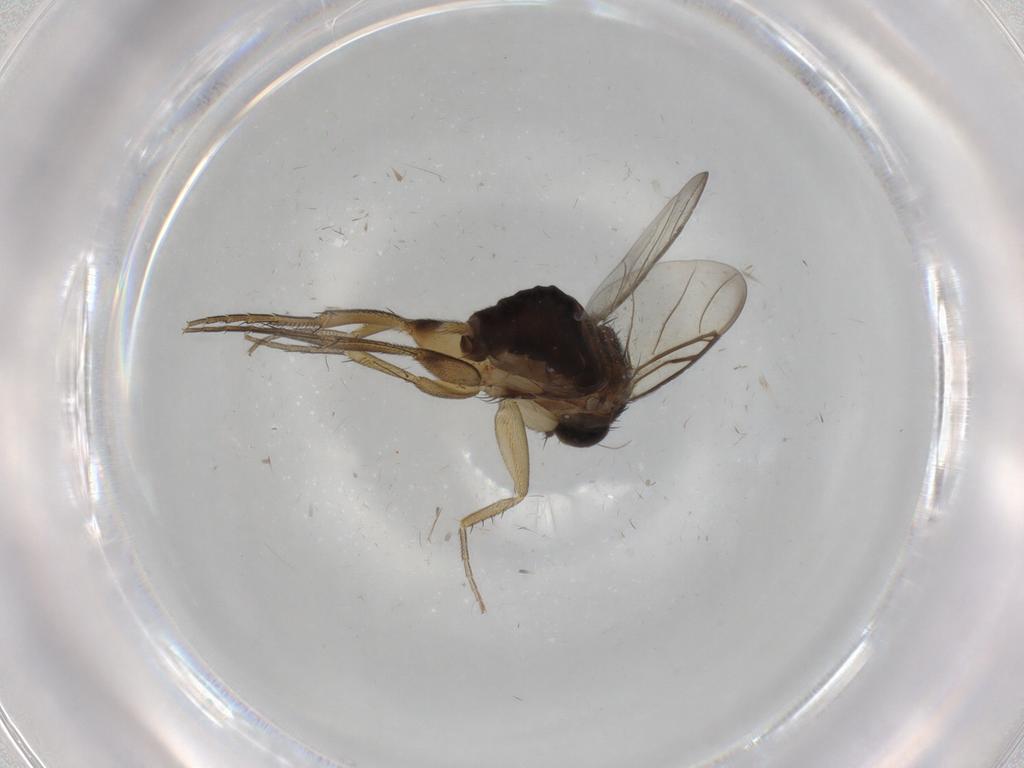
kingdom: Animalia
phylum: Arthropoda
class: Insecta
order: Diptera
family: Phoridae
